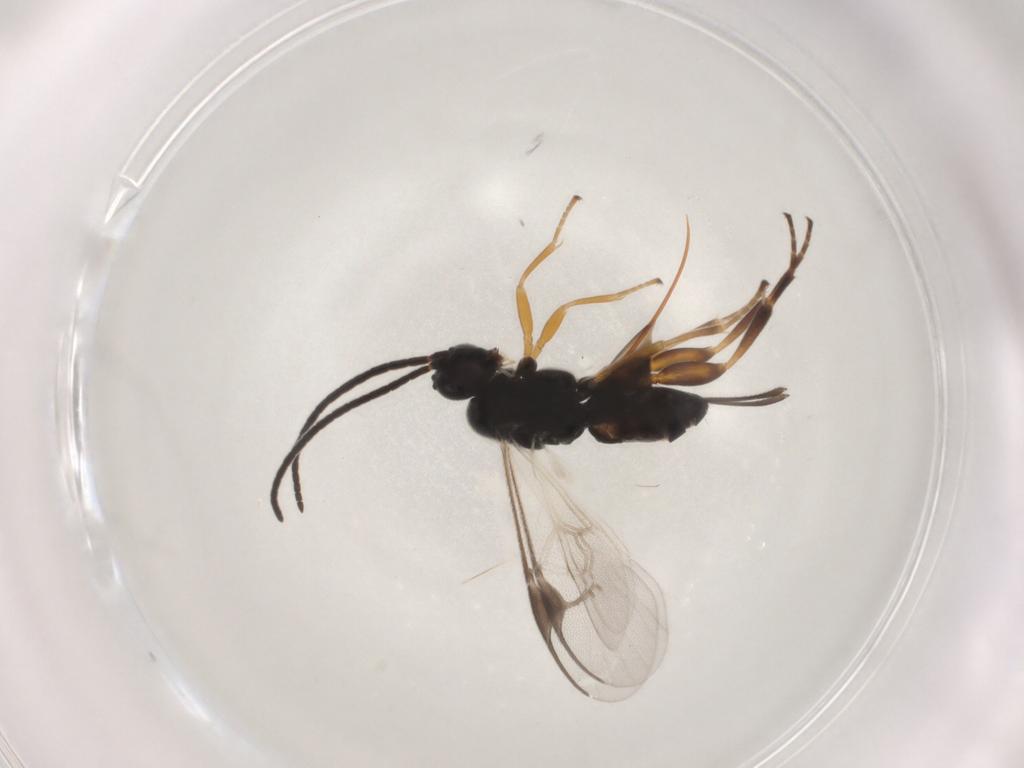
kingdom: Animalia
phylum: Arthropoda
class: Insecta
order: Hymenoptera
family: Braconidae
